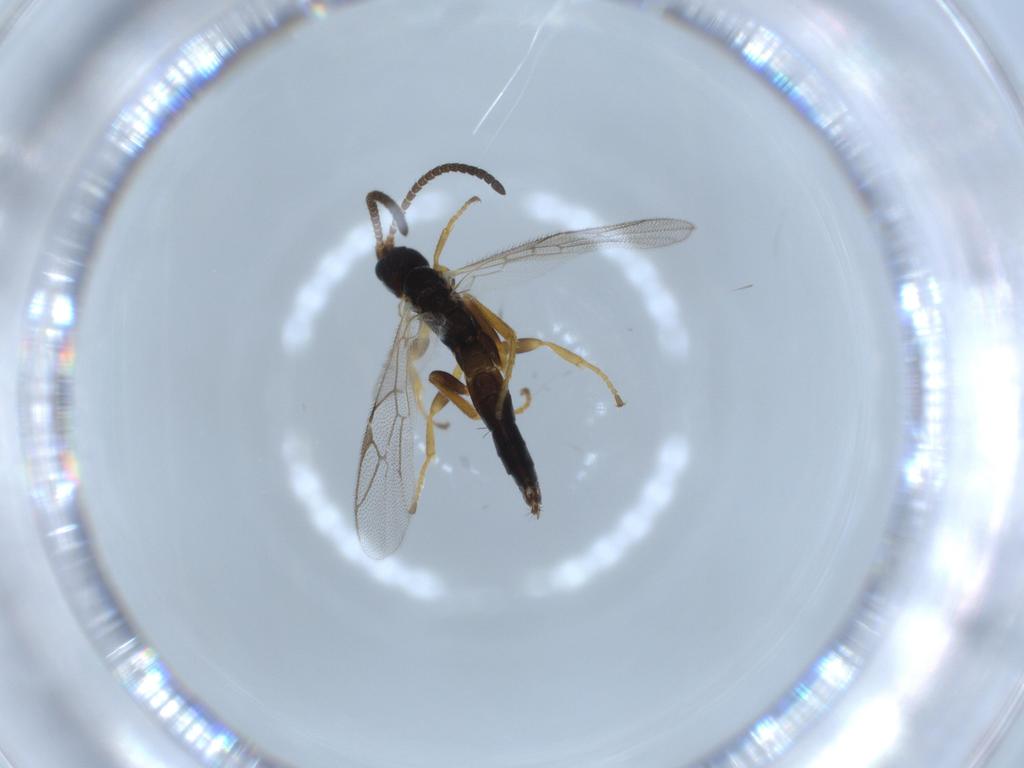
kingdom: Animalia
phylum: Arthropoda
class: Insecta
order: Hymenoptera
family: Ichneumonidae
